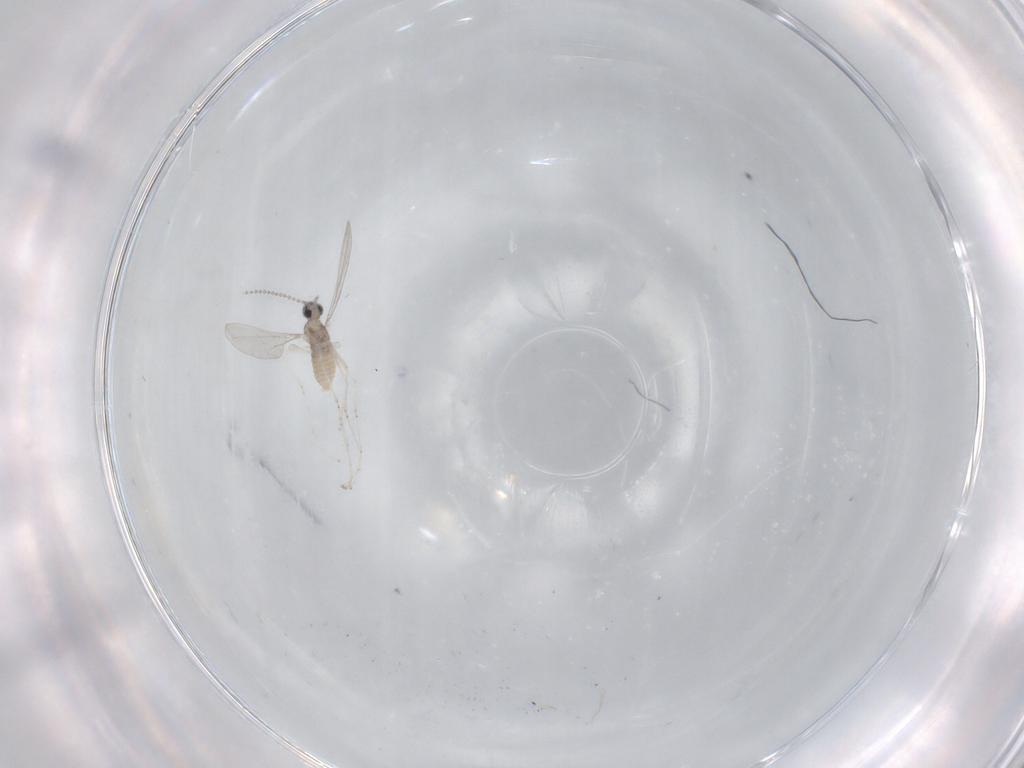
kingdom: Animalia
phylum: Arthropoda
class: Insecta
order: Diptera
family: Cecidomyiidae
